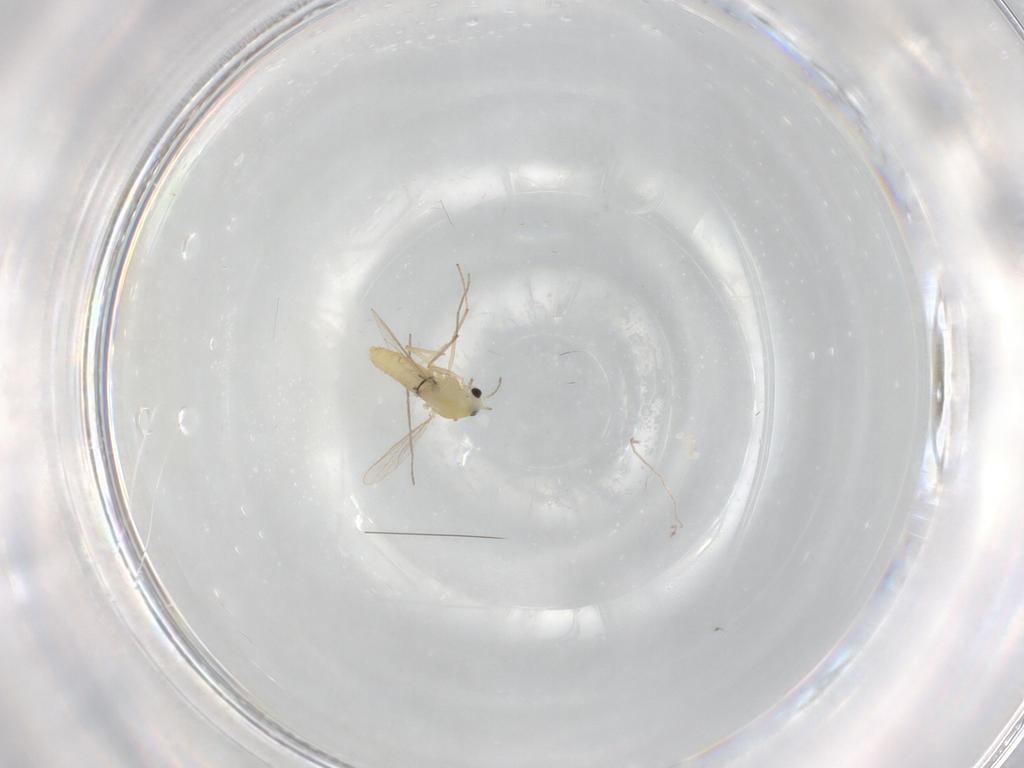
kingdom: Animalia
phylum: Arthropoda
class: Insecta
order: Diptera
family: Chironomidae
